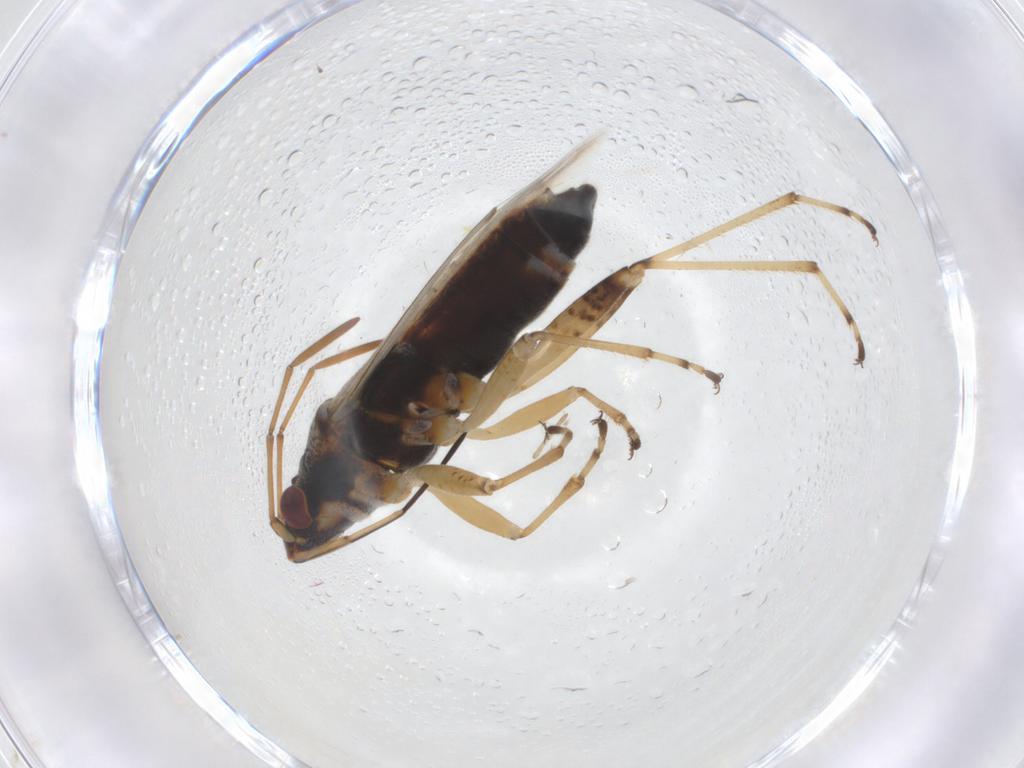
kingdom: Animalia
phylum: Arthropoda
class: Insecta
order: Hemiptera
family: Lygaeidae
